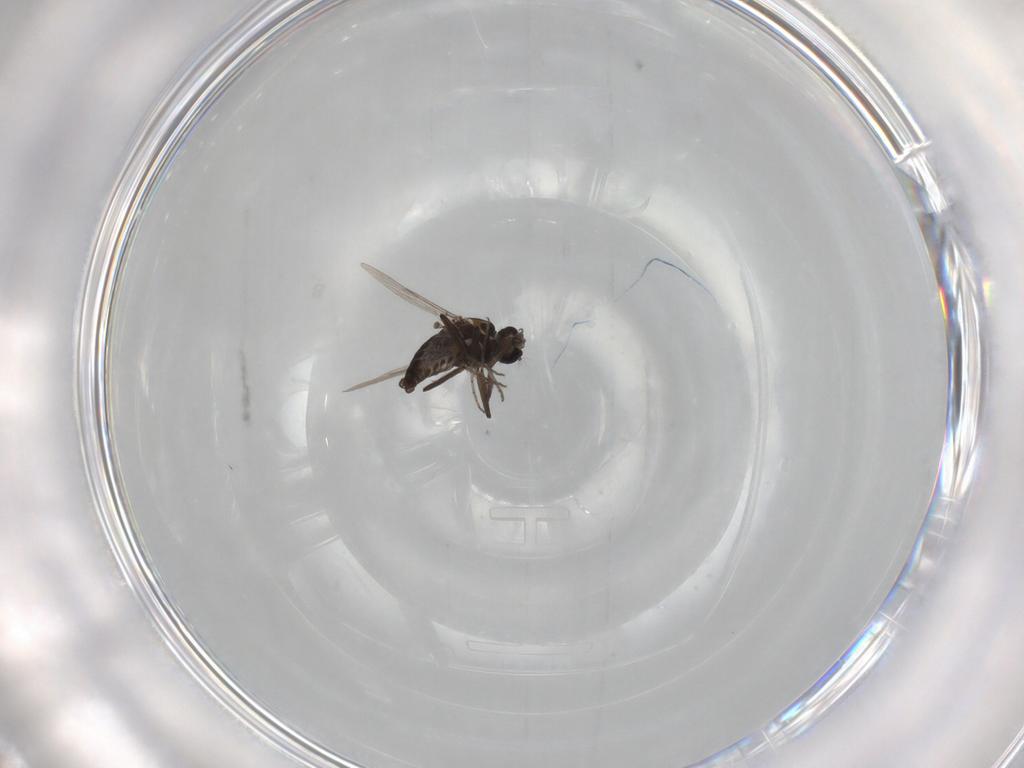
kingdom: Animalia
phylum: Arthropoda
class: Insecta
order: Diptera
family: Ceratopogonidae
